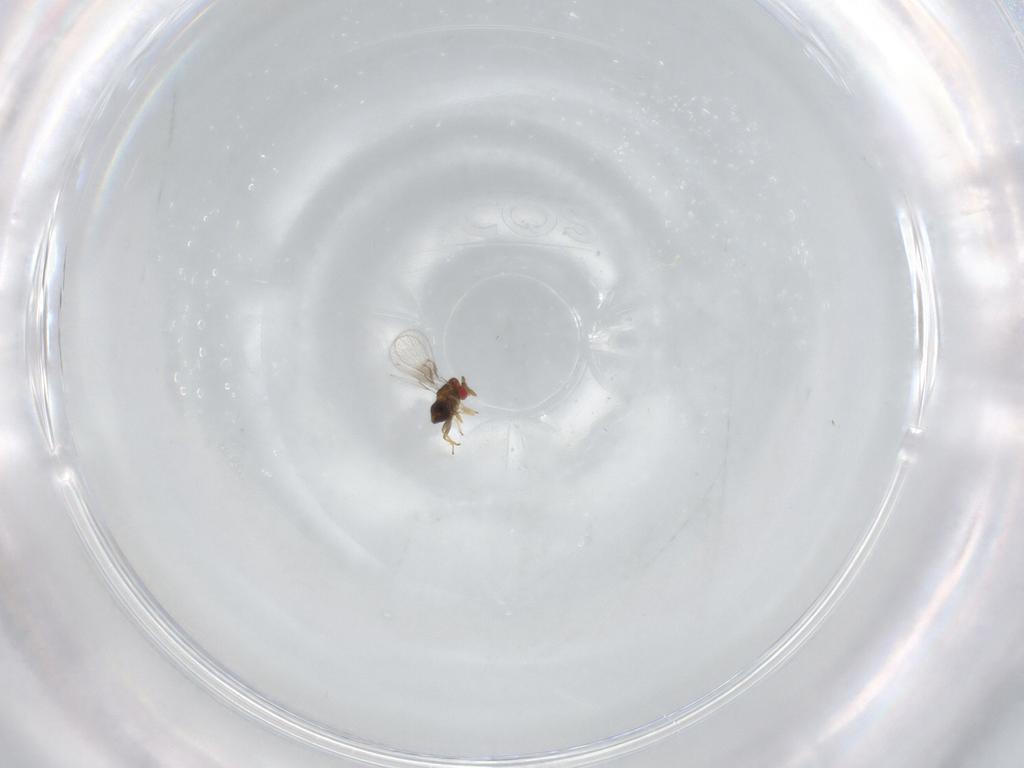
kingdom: Animalia
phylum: Arthropoda
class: Insecta
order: Hymenoptera
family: Trichogrammatidae
